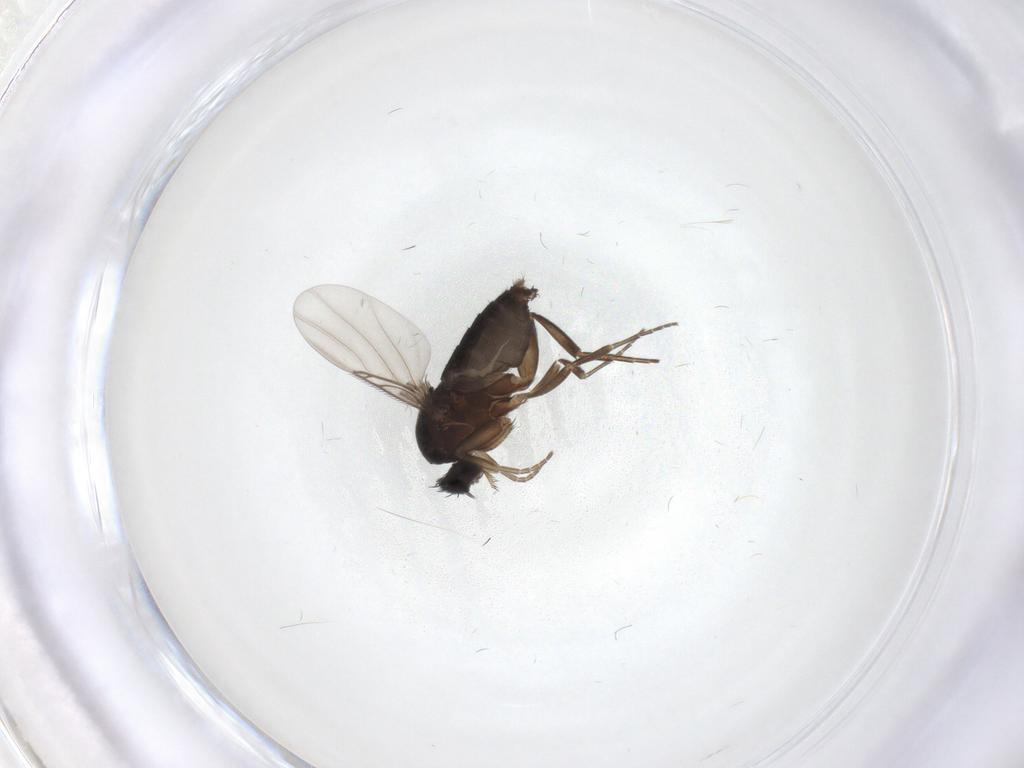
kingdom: Animalia
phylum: Arthropoda
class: Insecta
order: Diptera
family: Phoridae
